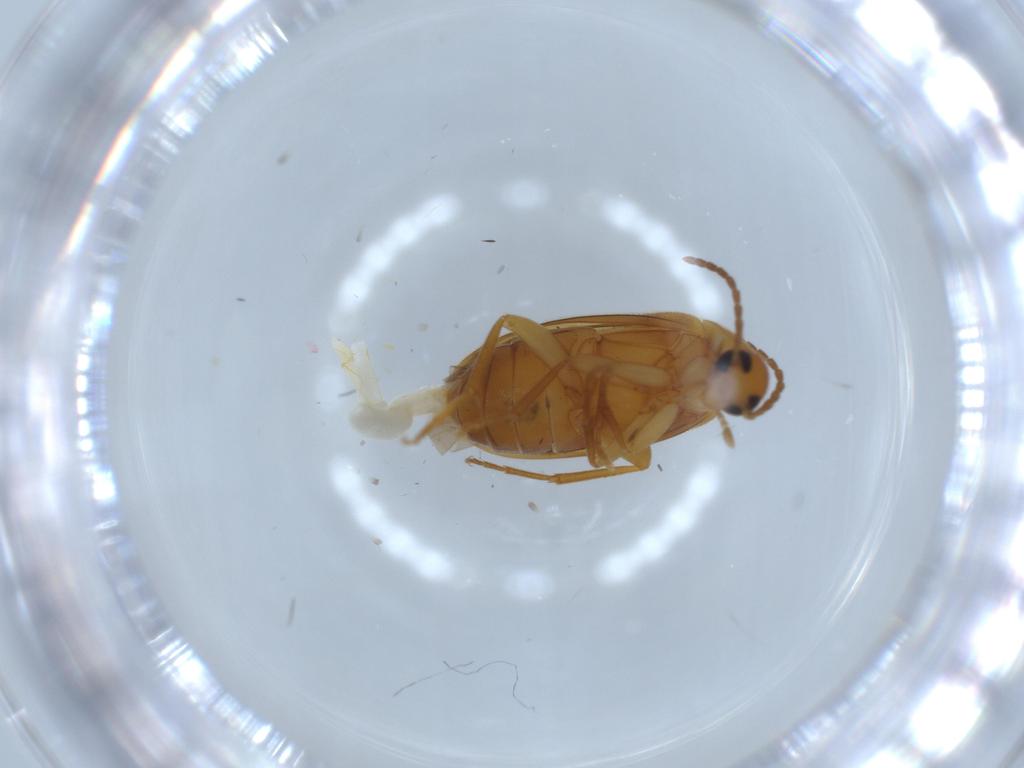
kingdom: Animalia
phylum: Arthropoda
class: Insecta
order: Coleoptera
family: Scraptiidae
